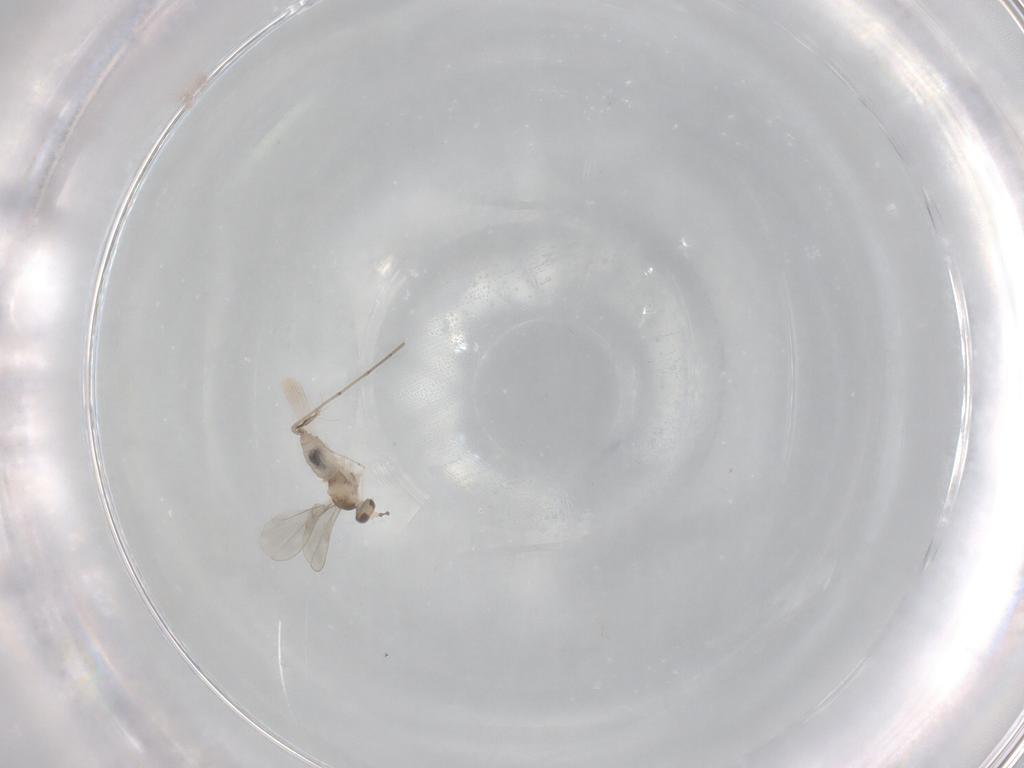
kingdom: Animalia
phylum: Arthropoda
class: Insecta
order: Diptera
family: Cecidomyiidae
